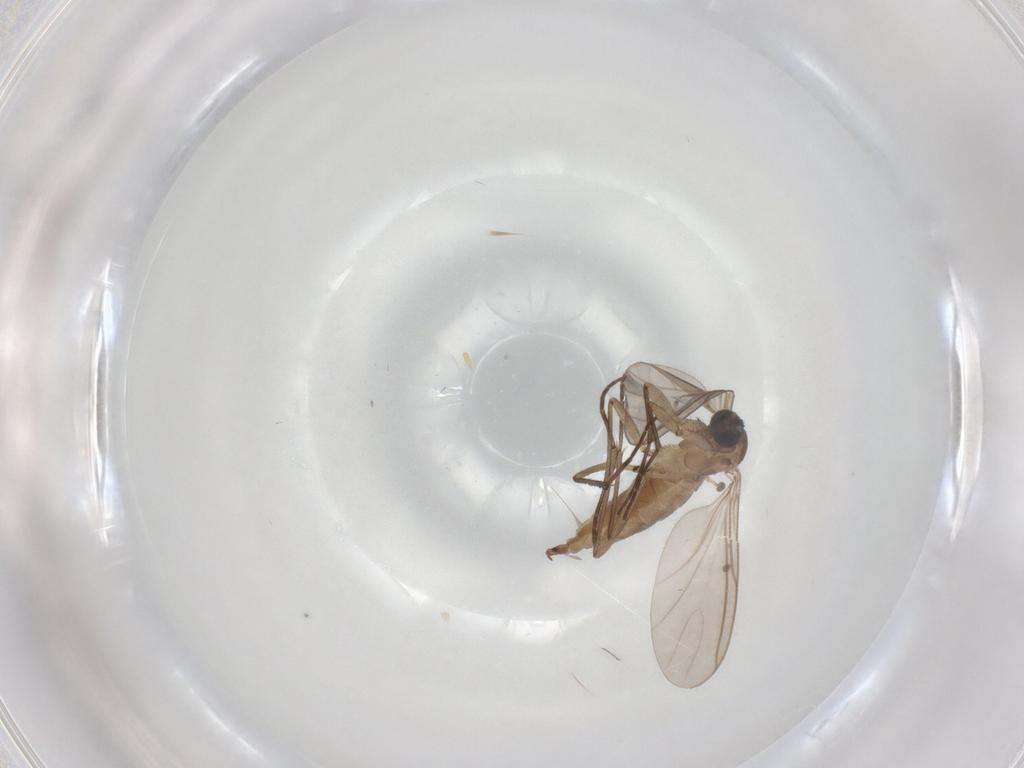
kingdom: Animalia
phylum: Arthropoda
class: Insecta
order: Diptera
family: Sciaridae
